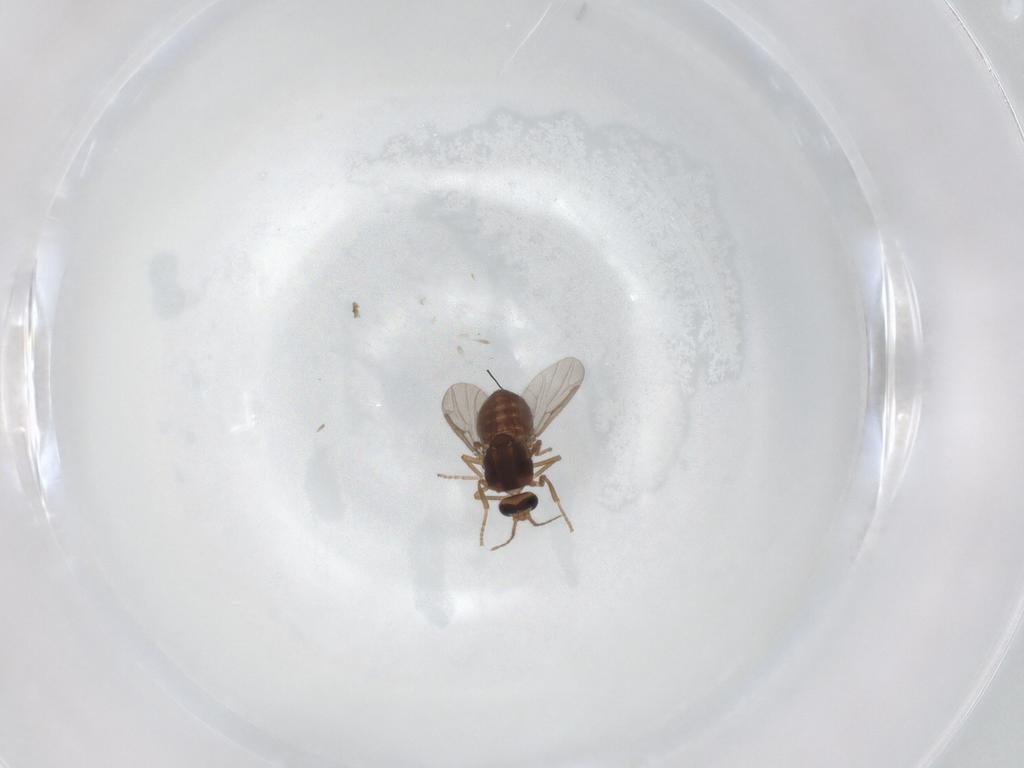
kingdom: Animalia
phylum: Arthropoda
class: Insecta
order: Diptera
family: Ceratopogonidae
